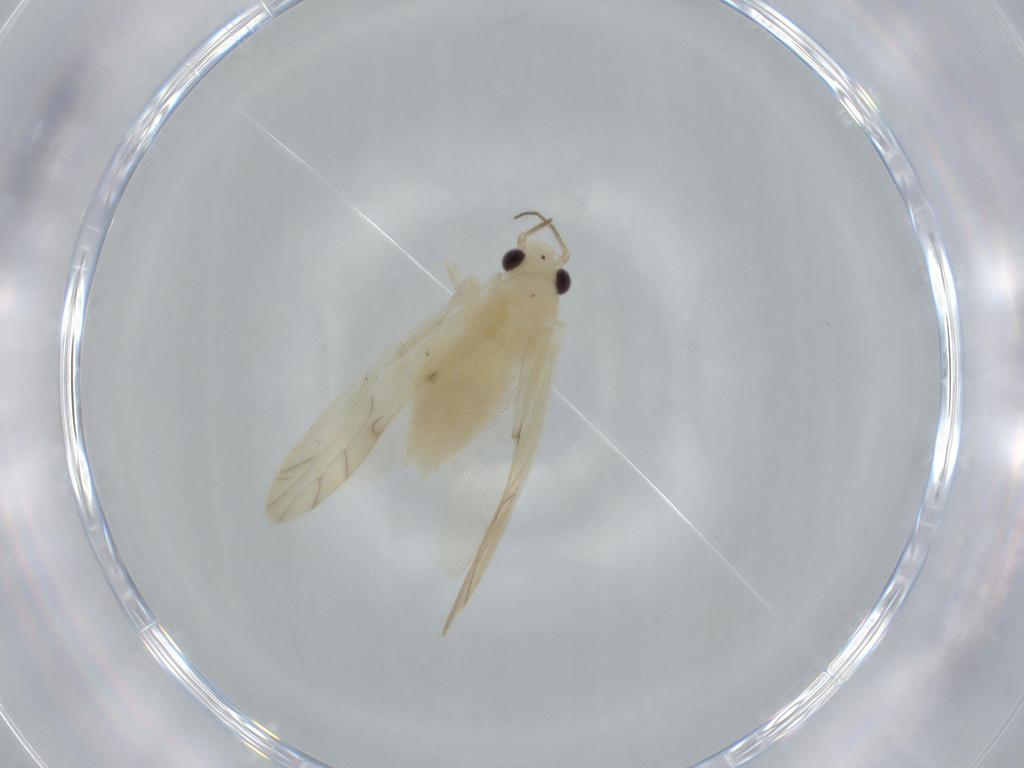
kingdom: Animalia
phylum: Arthropoda
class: Insecta
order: Psocodea
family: Caeciliusidae
